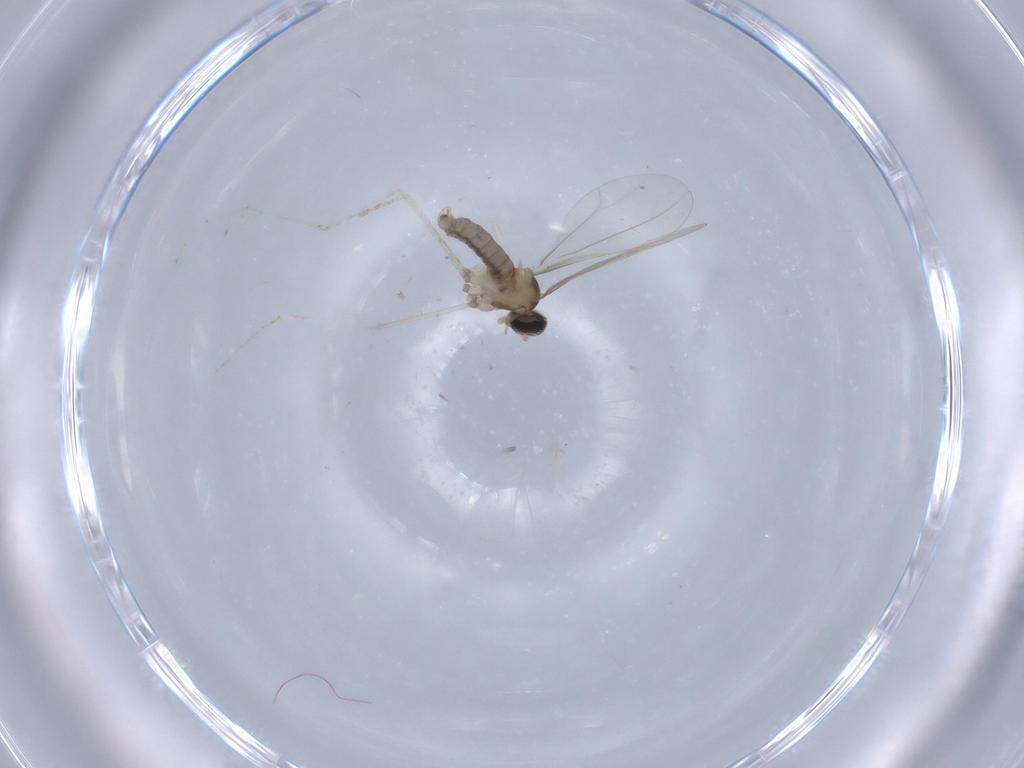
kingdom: Animalia
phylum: Arthropoda
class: Insecta
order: Diptera
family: Cecidomyiidae
